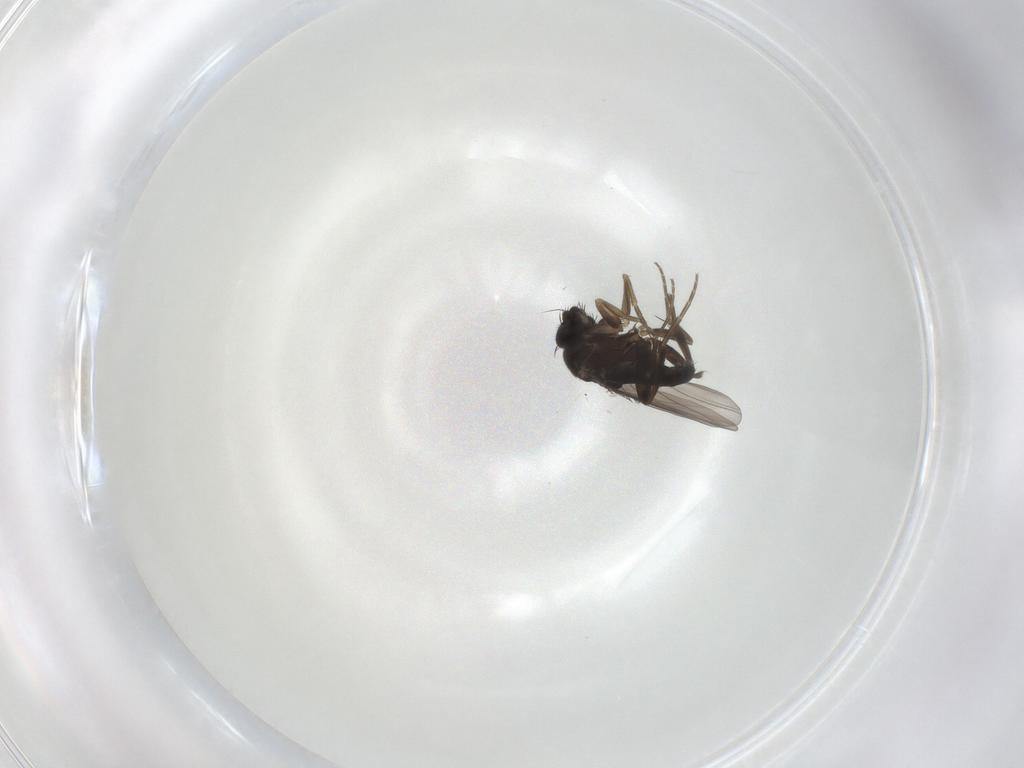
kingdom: Animalia
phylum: Arthropoda
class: Insecta
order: Diptera
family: Phoridae
